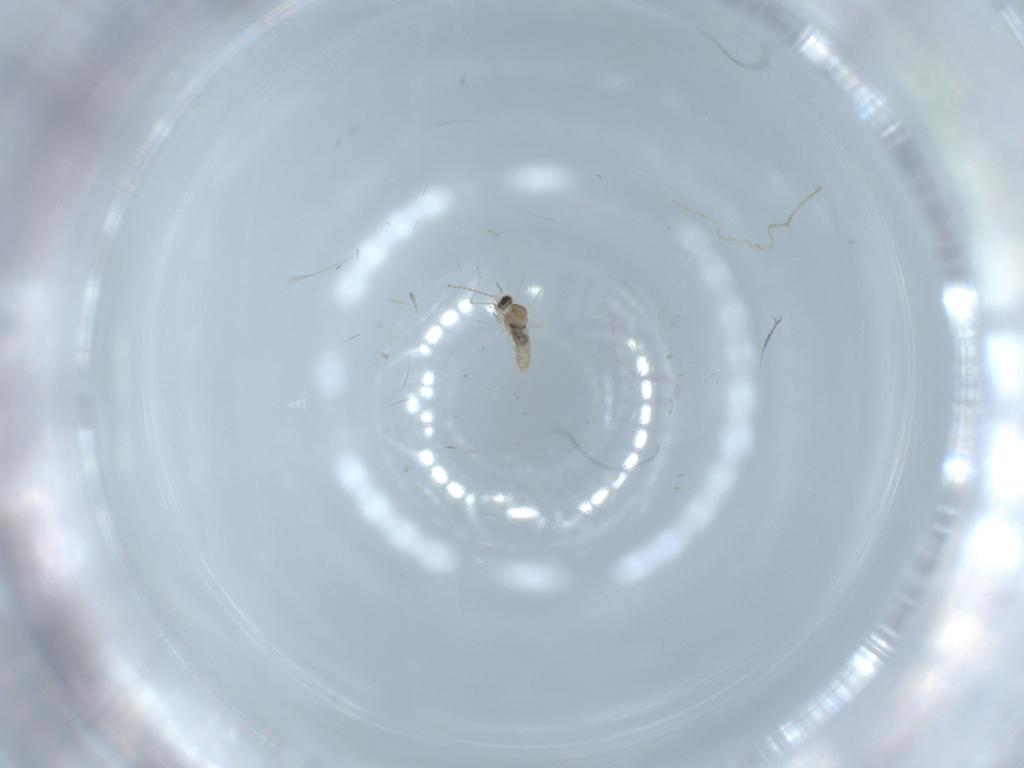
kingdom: Animalia
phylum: Arthropoda
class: Insecta
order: Diptera
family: Cecidomyiidae
